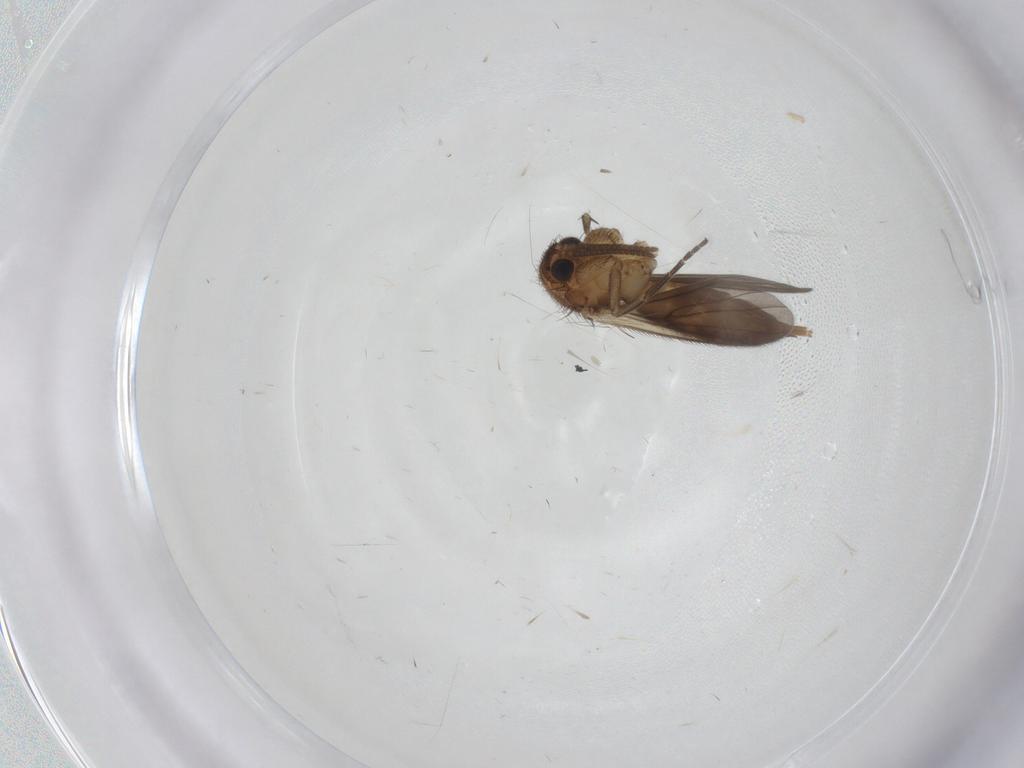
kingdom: Animalia
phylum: Arthropoda
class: Insecta
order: Diptera
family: Mycetophilidae
